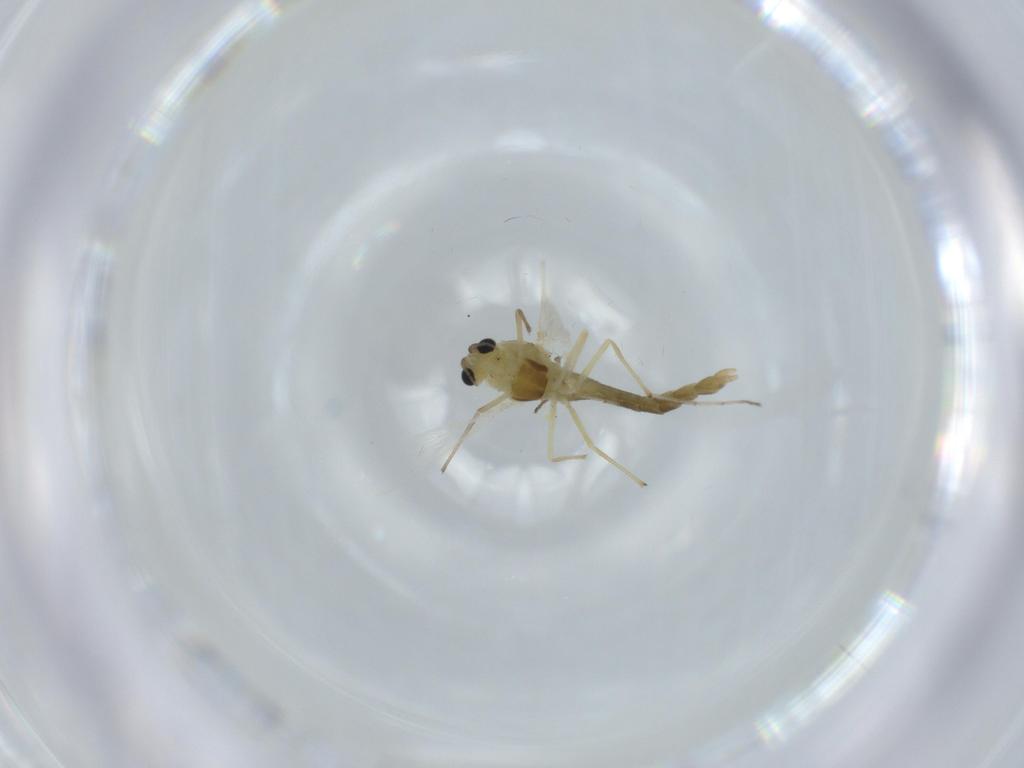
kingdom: Animalia
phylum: Arthropoda
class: Insecta
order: Diptera
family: Chironomidae
